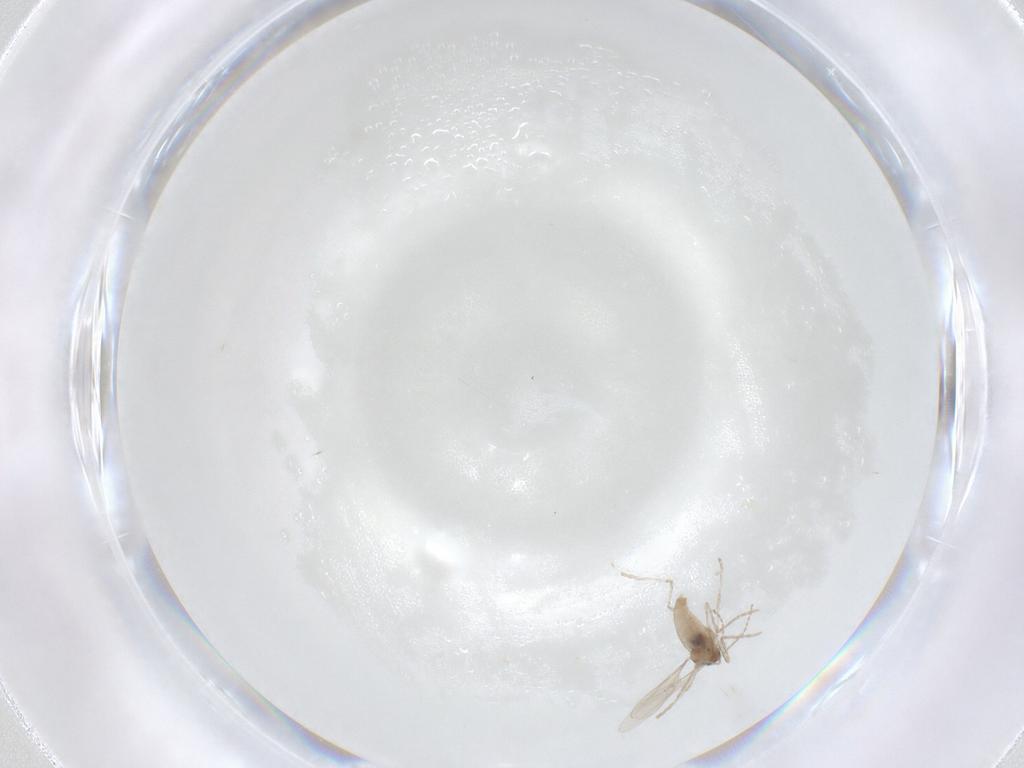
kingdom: Animalia
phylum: Arthropoda
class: Insecta
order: Diptera
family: Cecidomyiidae
